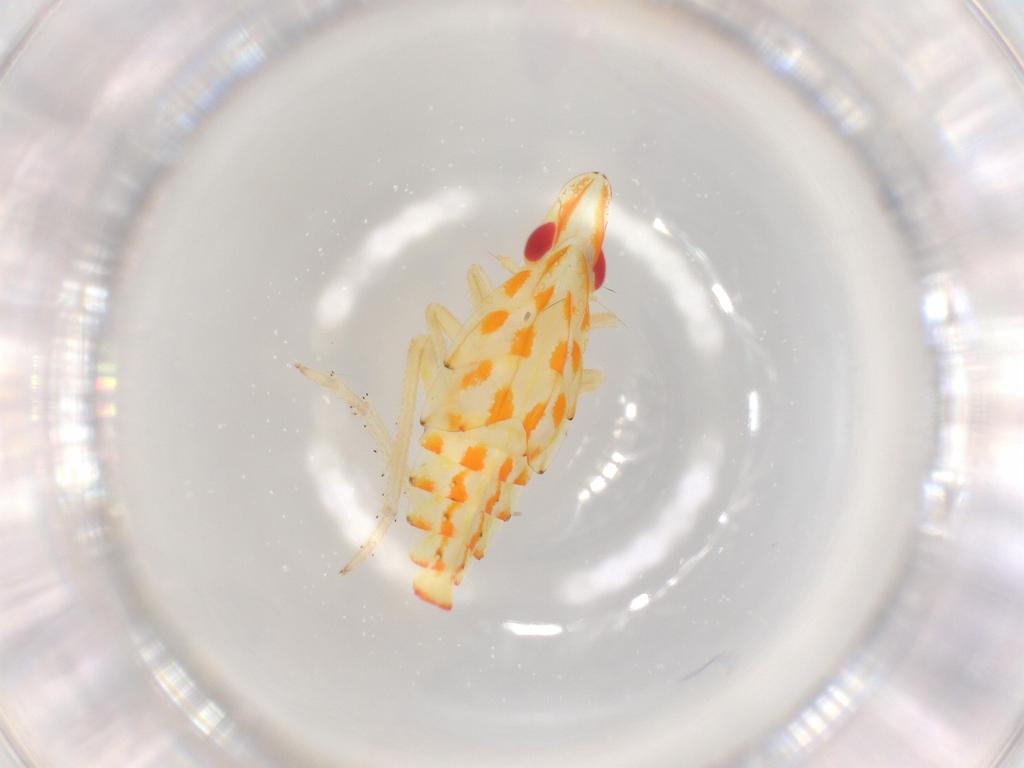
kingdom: Animalia
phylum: Arthropoda
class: Insecta
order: Hemiptera
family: Tropiduchidae
